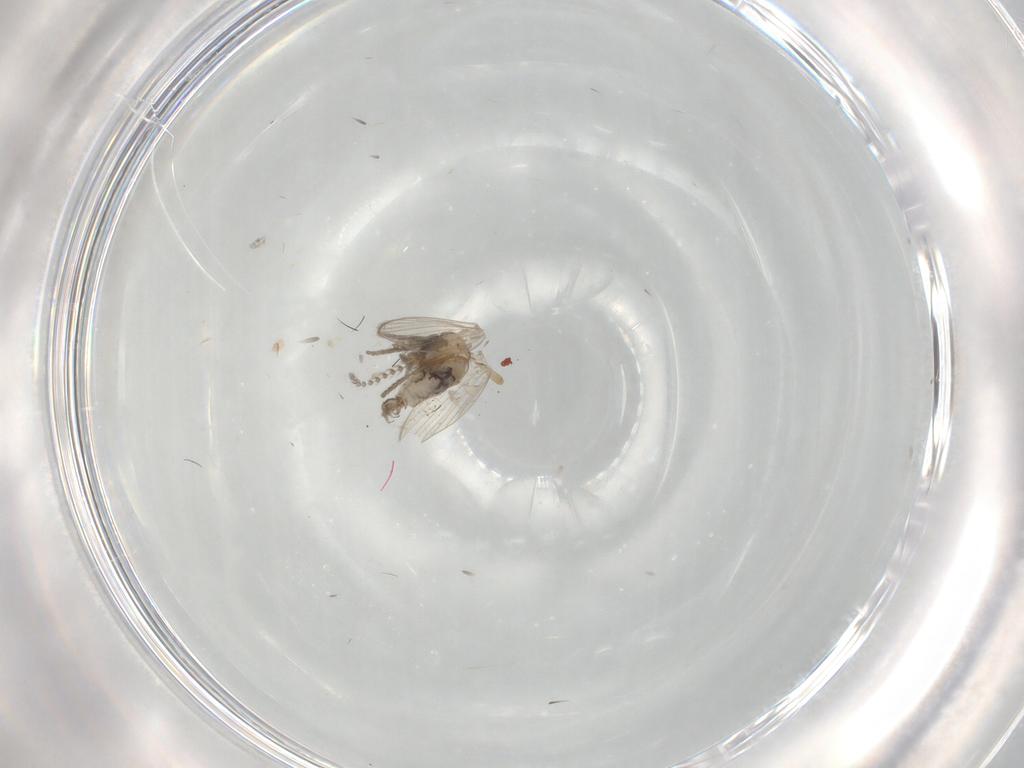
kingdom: Animalia
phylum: Arthropoda
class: Insecta
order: Diptera
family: Psychodidae
